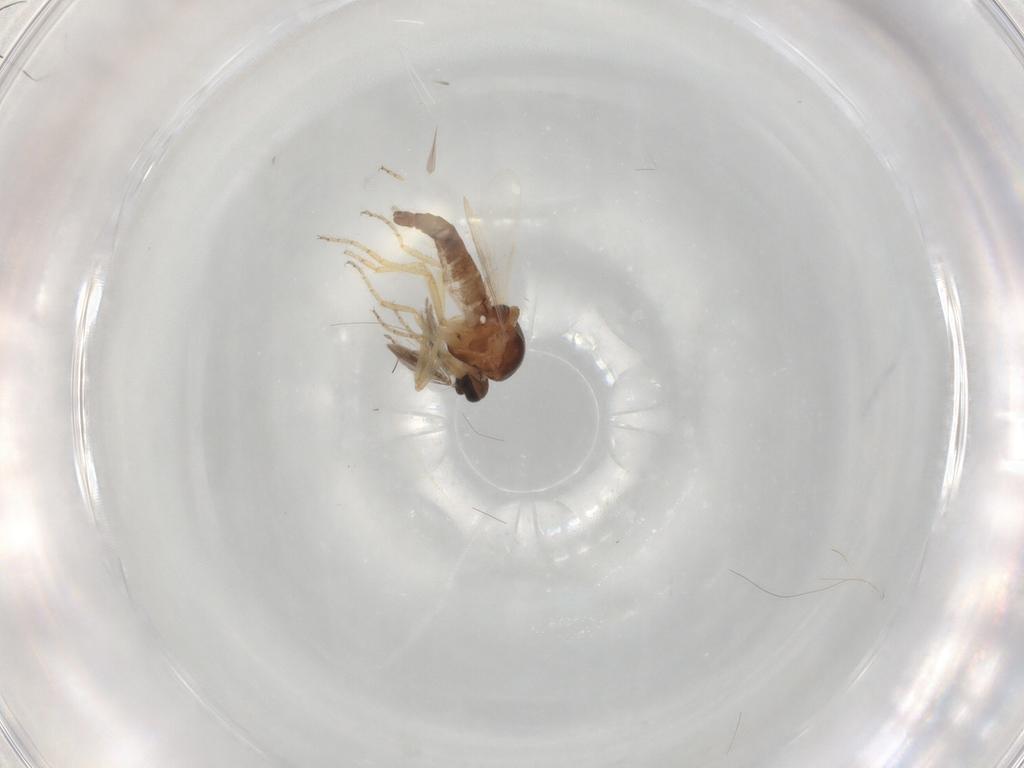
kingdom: Animalia
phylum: Arthropoda
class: Insecta
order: Diptera
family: Ceratopogonidae
